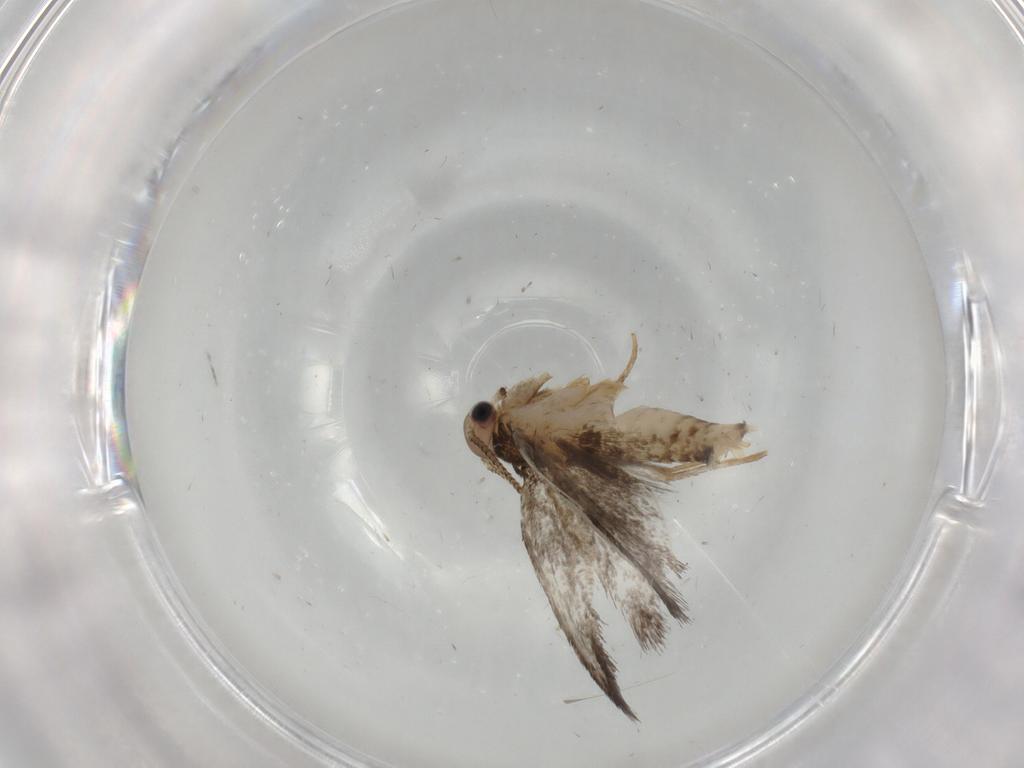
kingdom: Animalia
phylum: Arthropoda
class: Insecta
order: Lepidoptera
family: Tineidae
